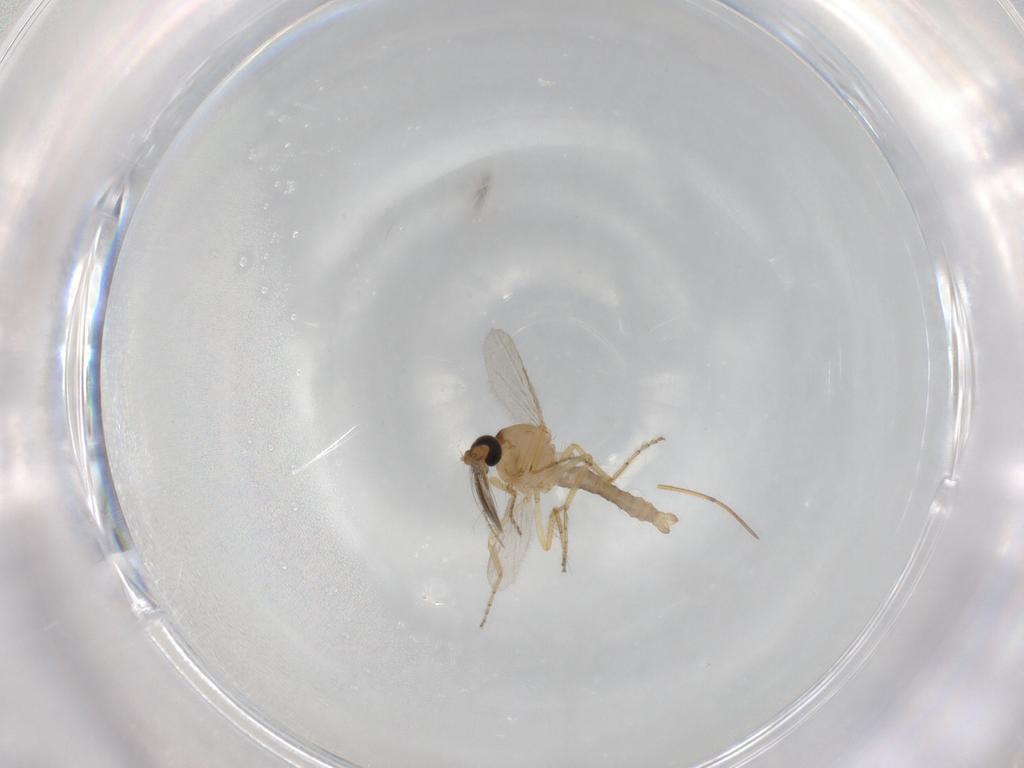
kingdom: Animalia
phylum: Arthropoda
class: Insecta
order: Diptera
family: Ceratopogonidae
